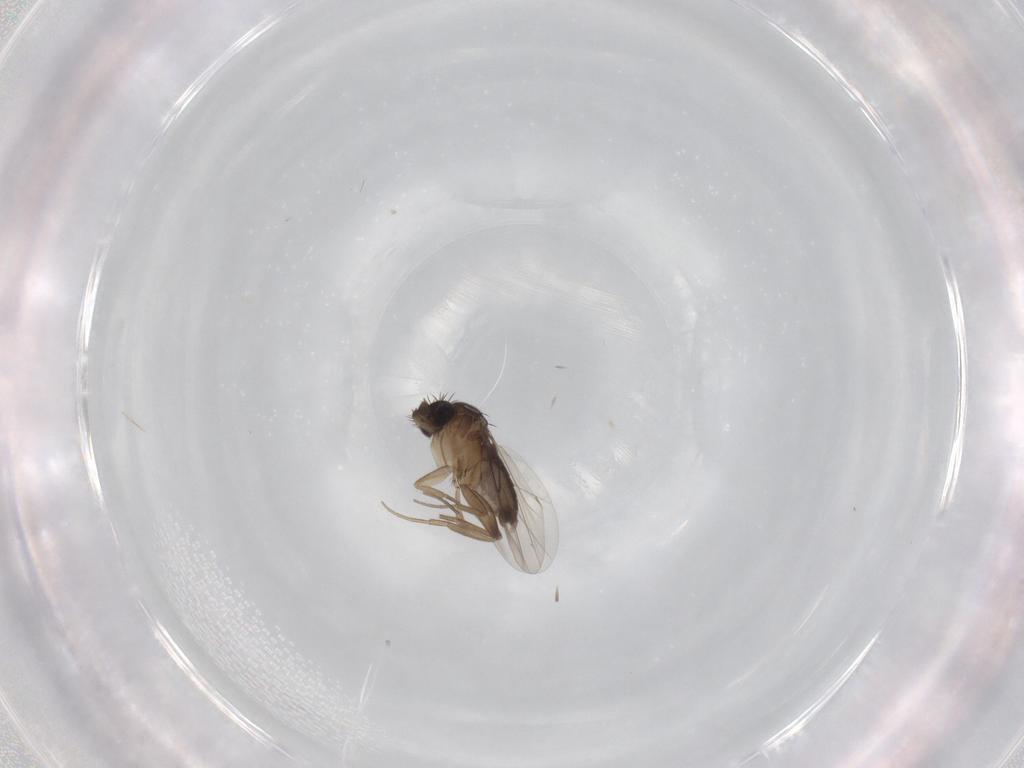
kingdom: Animalia
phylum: Arthropoda
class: Insecta
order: Diptera
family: Phoridae
